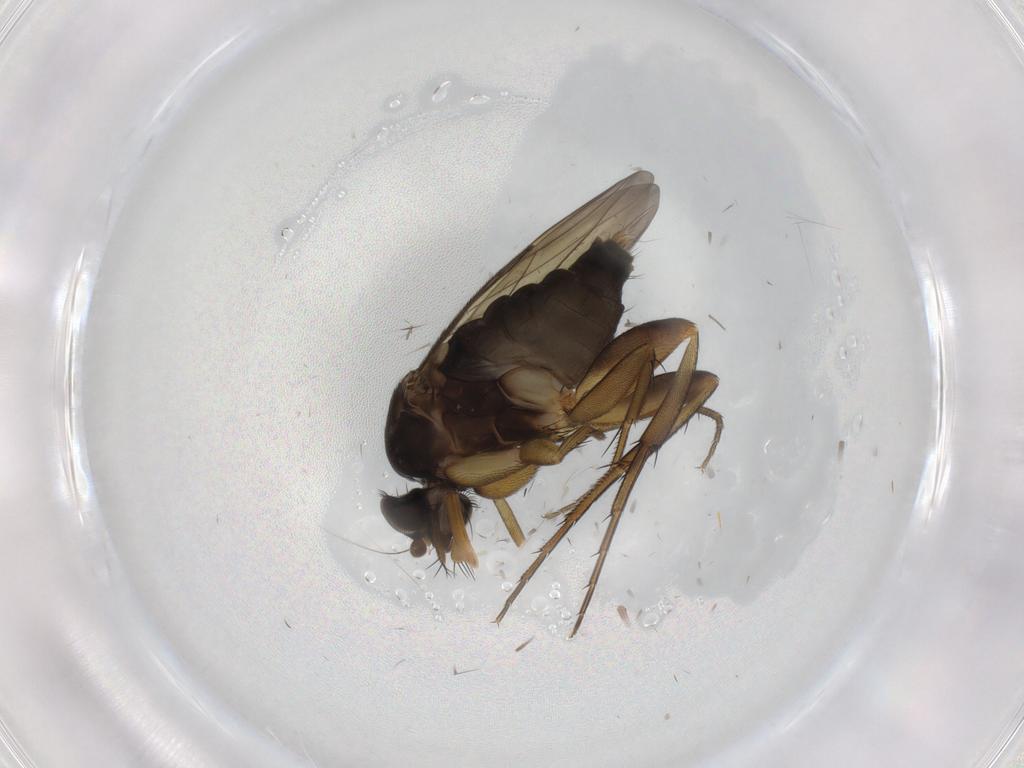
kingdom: Animalia
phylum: Arthropoda
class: Insecta
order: Diptera
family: Cecidomyiidae
